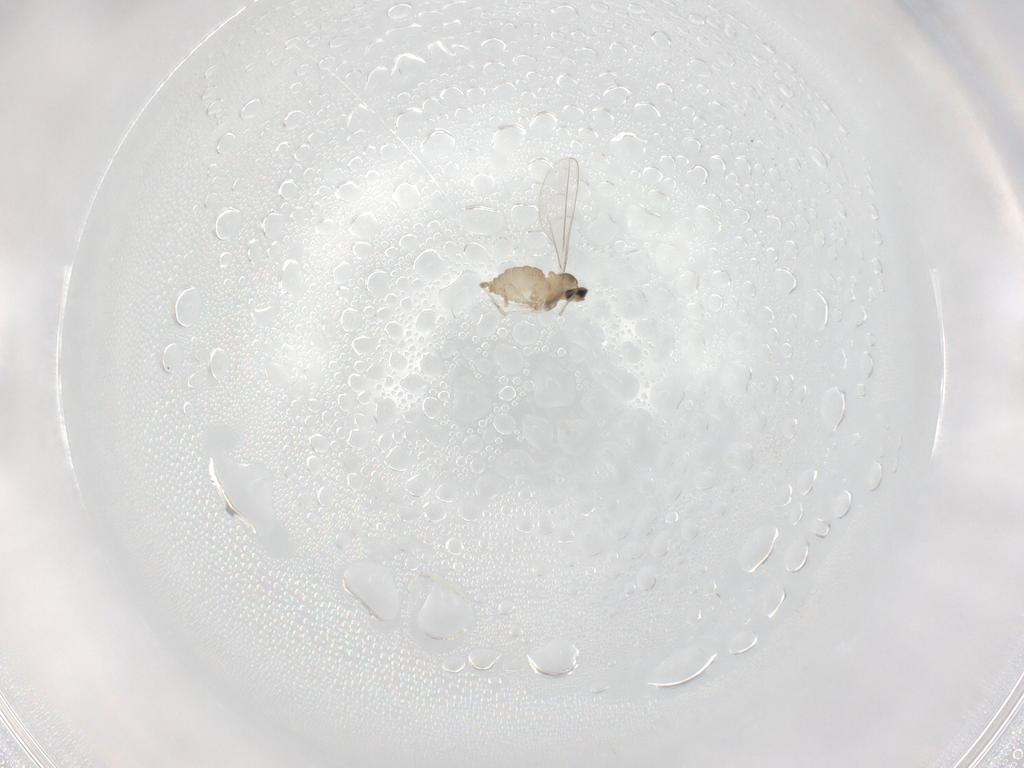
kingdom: Animalia
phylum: Arthropoda
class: Insecta
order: Diptera
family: Cecidomyiidae
